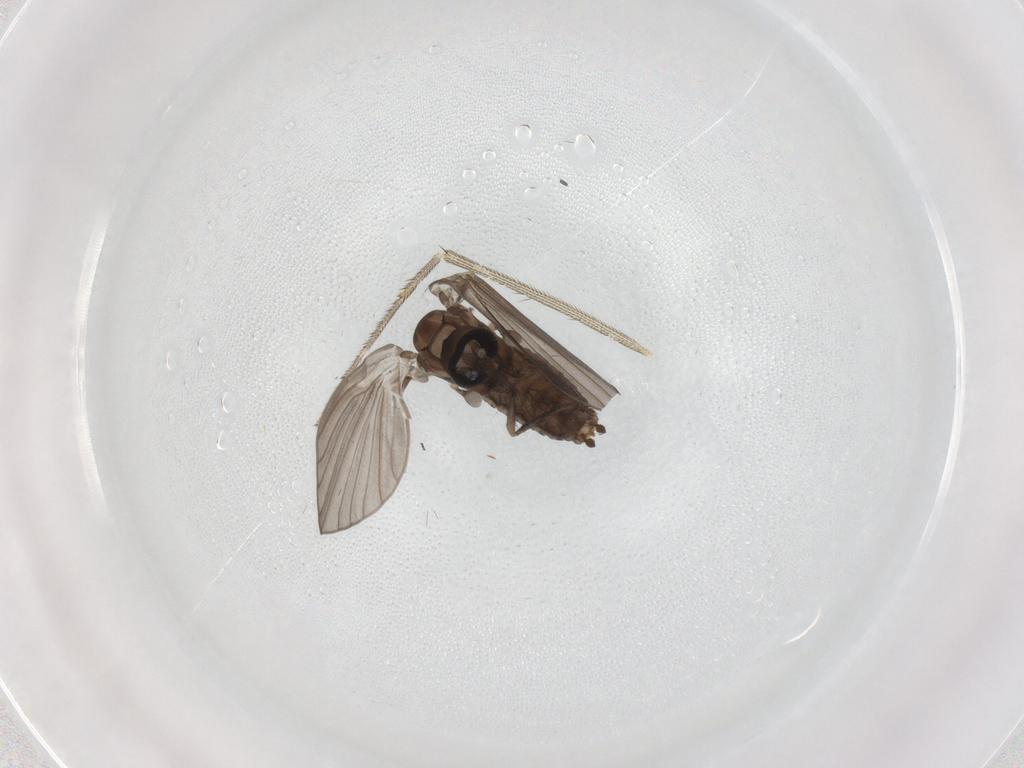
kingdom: Animalia
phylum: Arthropoda
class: Insecta
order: Diptera
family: Psychodidae
